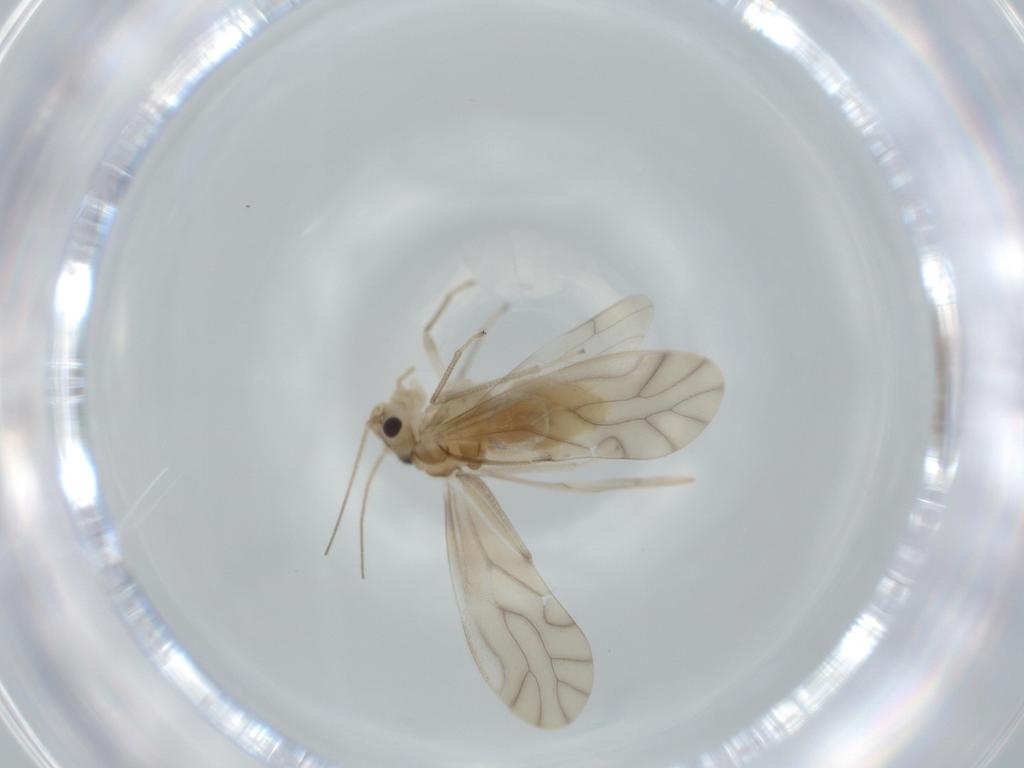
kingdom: Animalia
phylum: Arthropoda
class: Insecta
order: Psocodea
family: Caeciliusidae
